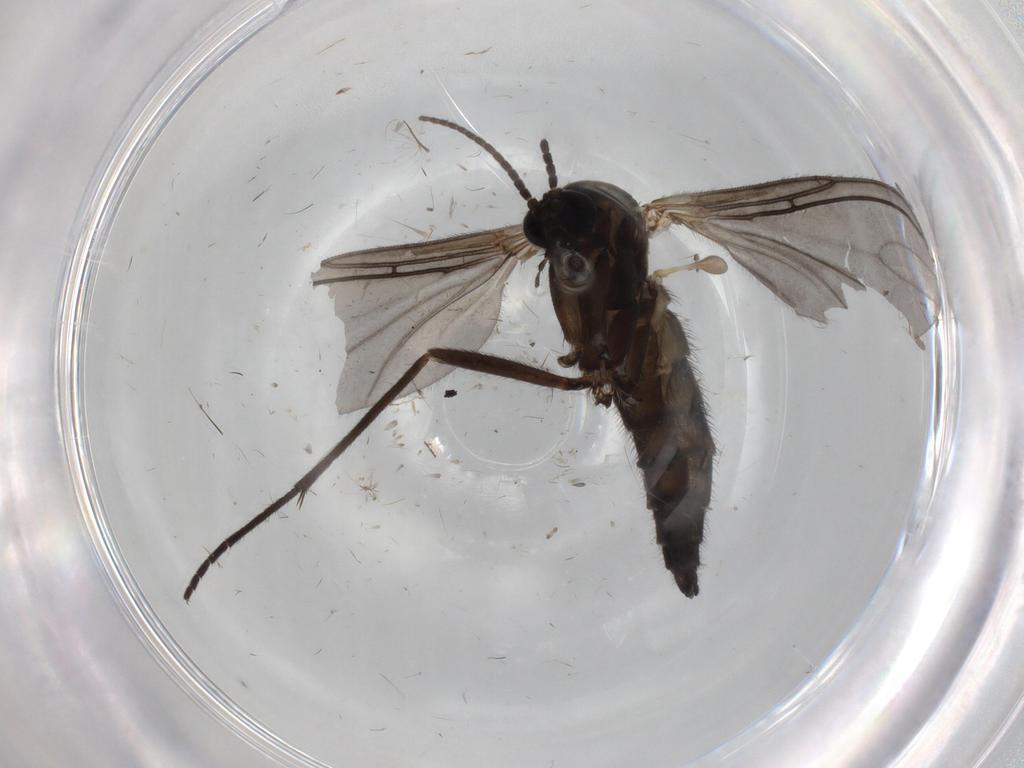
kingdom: Animalia
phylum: Arthropoda
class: Insecta
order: Diptera
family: Sciaridae
